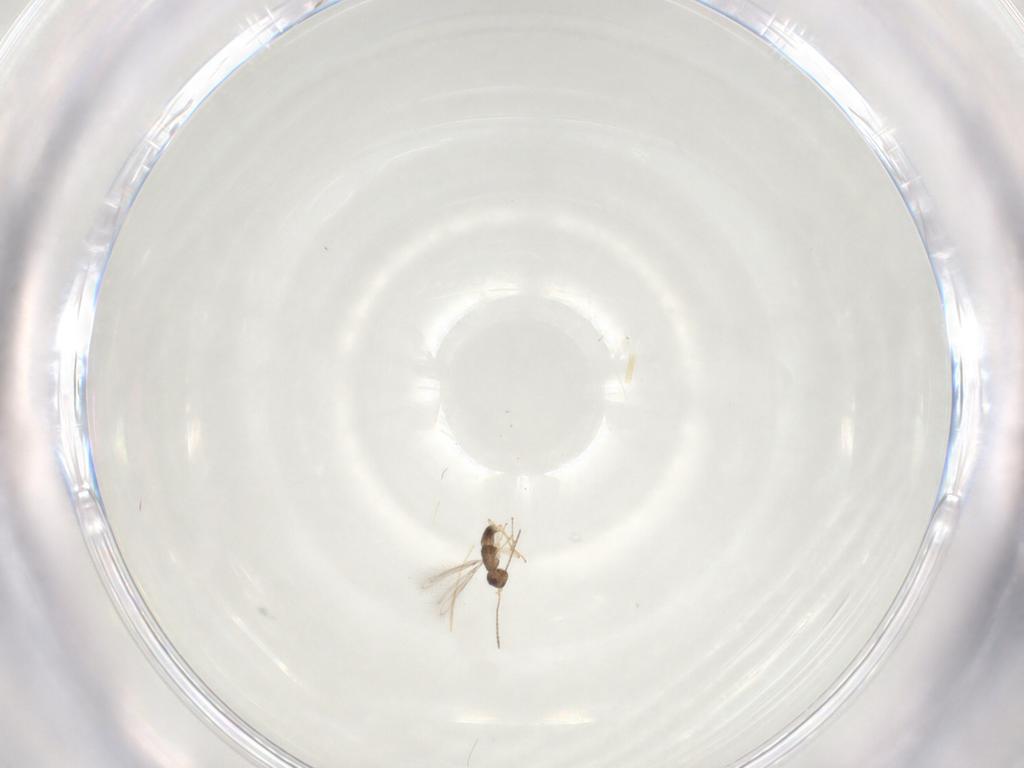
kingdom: Animalia
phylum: Arthropoda
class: Insecta
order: Hymenoptera
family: Mymaridae
